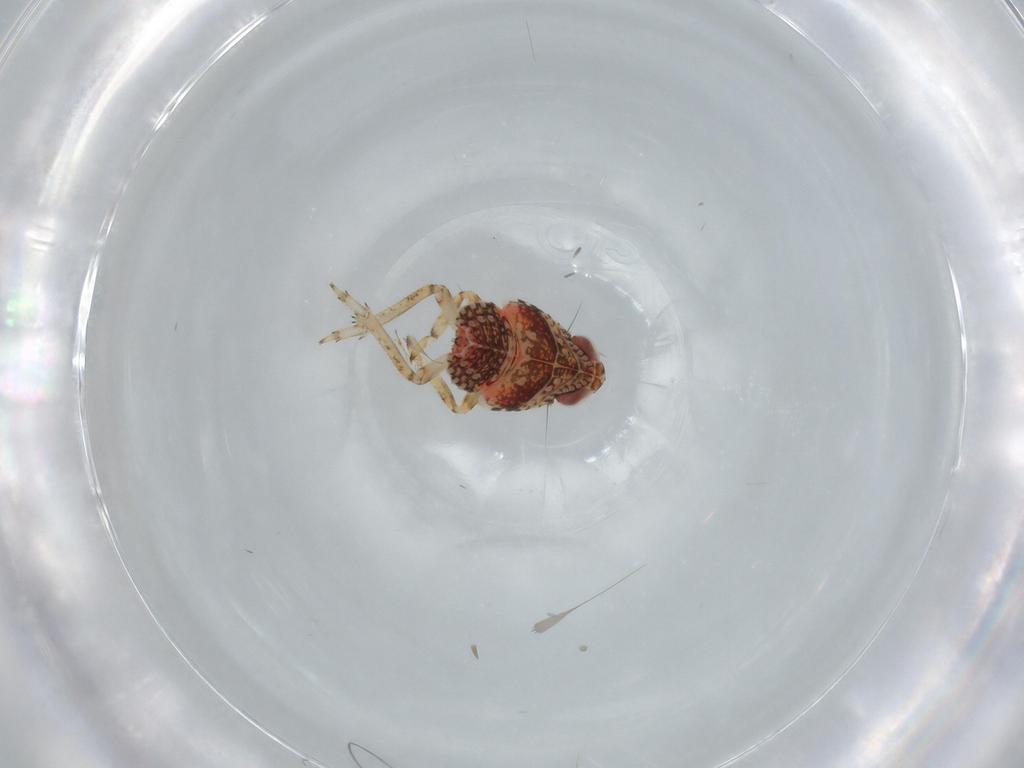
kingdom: Animalia
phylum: Arthropoda
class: Insecta
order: Hemiptera
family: Issidae
